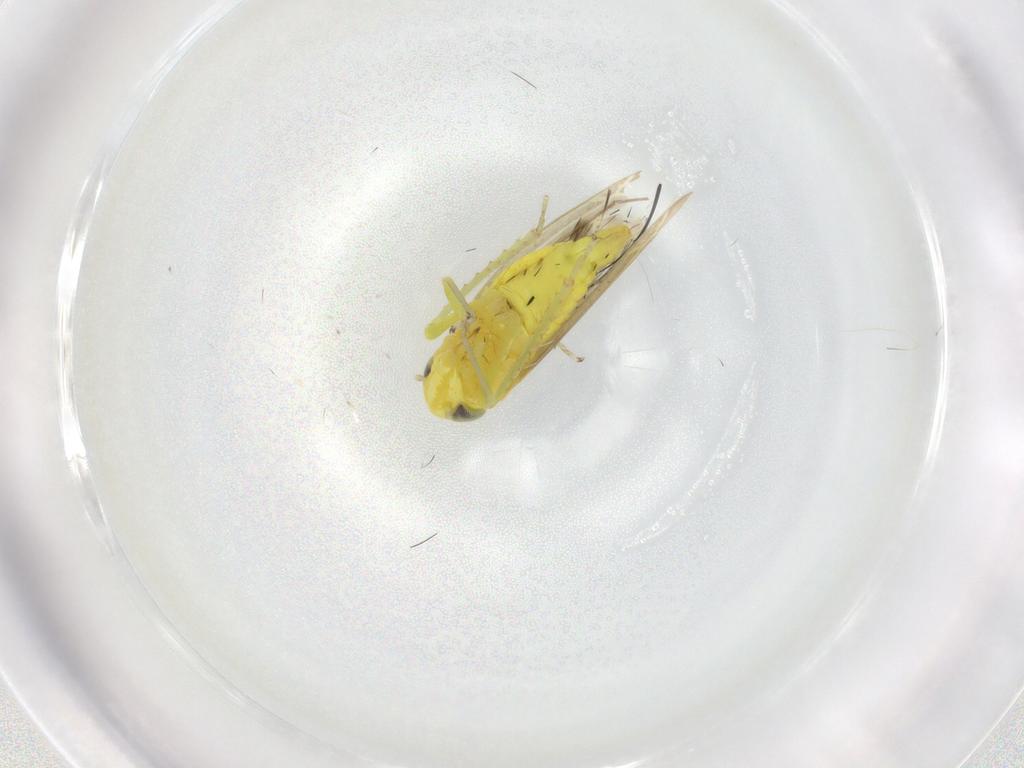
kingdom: Animalia
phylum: Arthropoda
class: Insecta
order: Hemiptera
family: Cicadellidae
